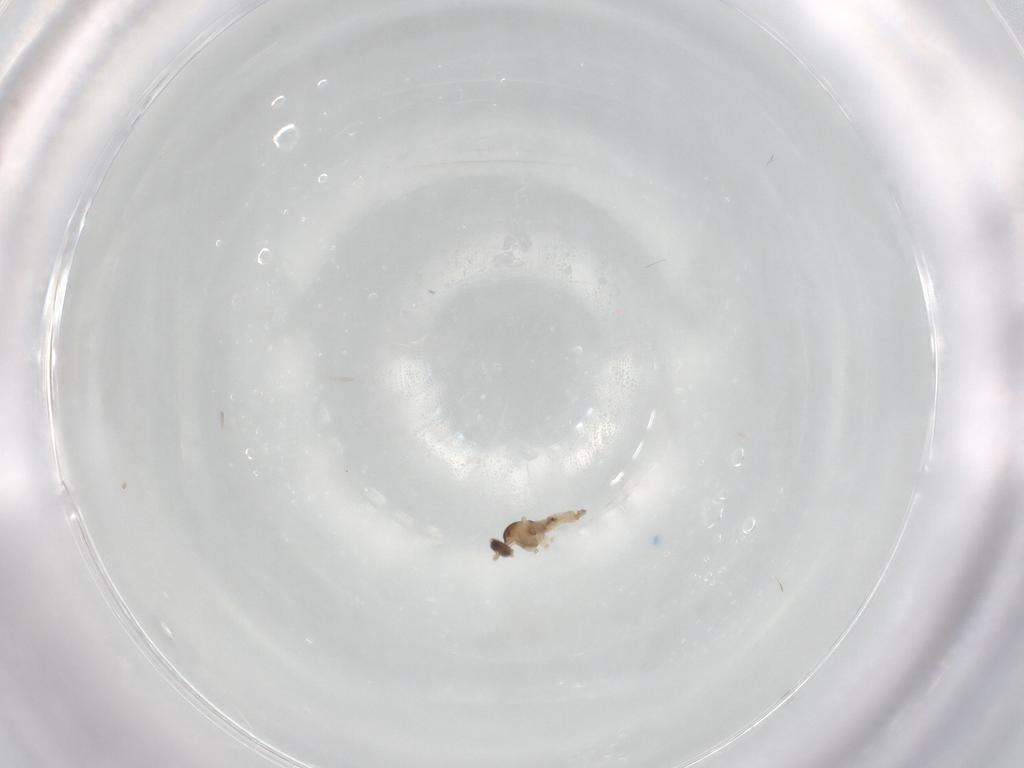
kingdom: Animalia
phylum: Arthropoda
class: Insecta
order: Diptera
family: Cecidomyiidae
